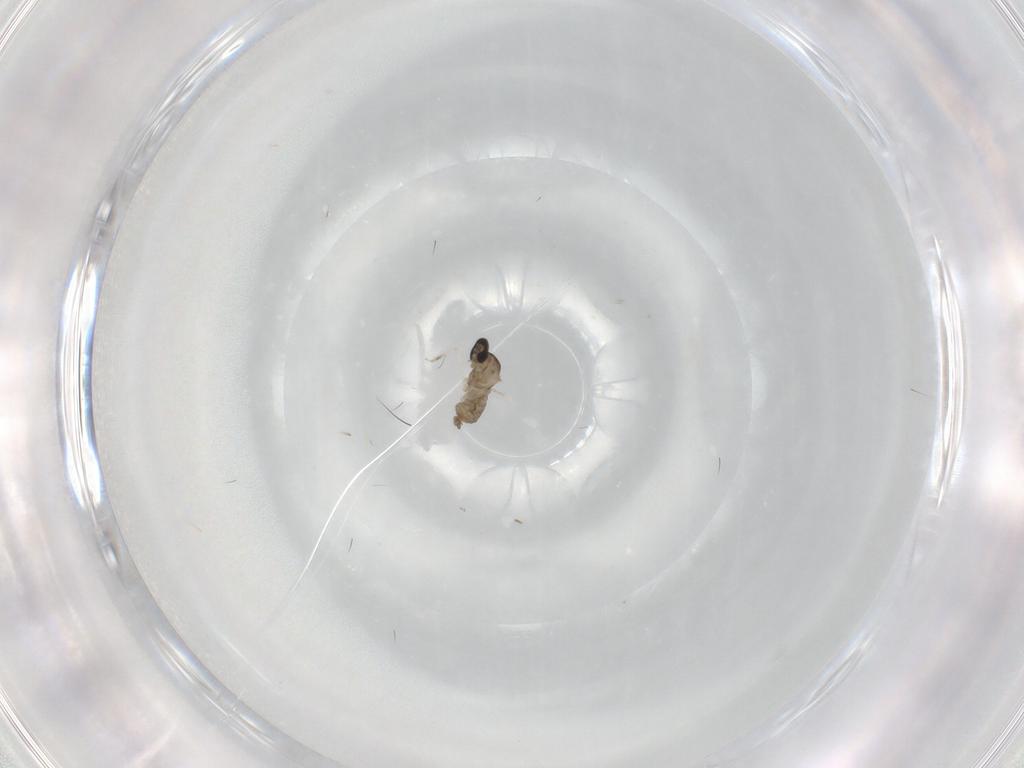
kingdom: Animalia
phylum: Arthropoda
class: Insecta
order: Diptera
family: Cecidomyiidae
